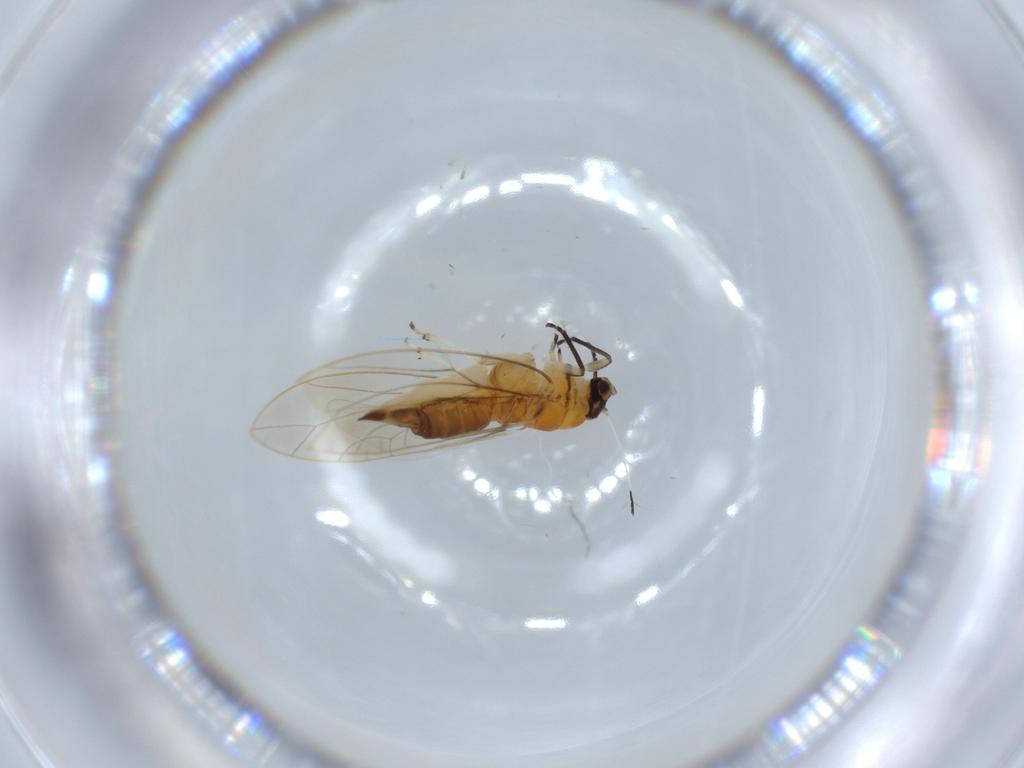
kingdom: Animalia
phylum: Arthropoda
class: Insecta
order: Hemiptera
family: Triozidae
